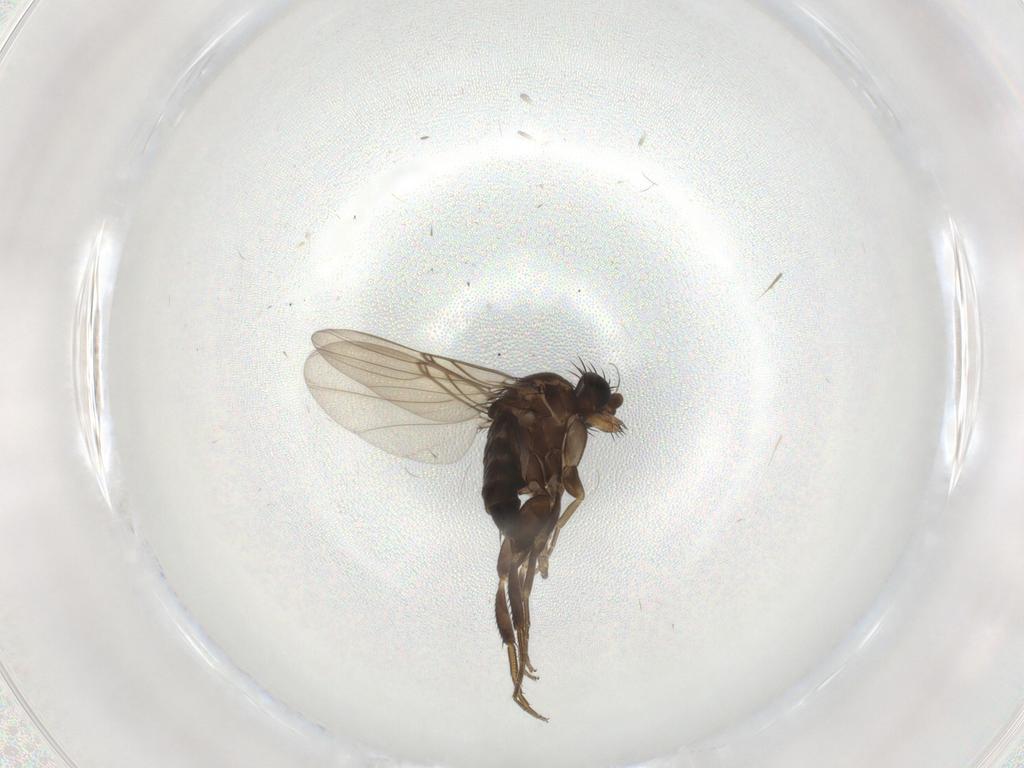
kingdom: Animalia
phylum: Arthropoda
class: Insecta
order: Diptera
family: Phoridae
